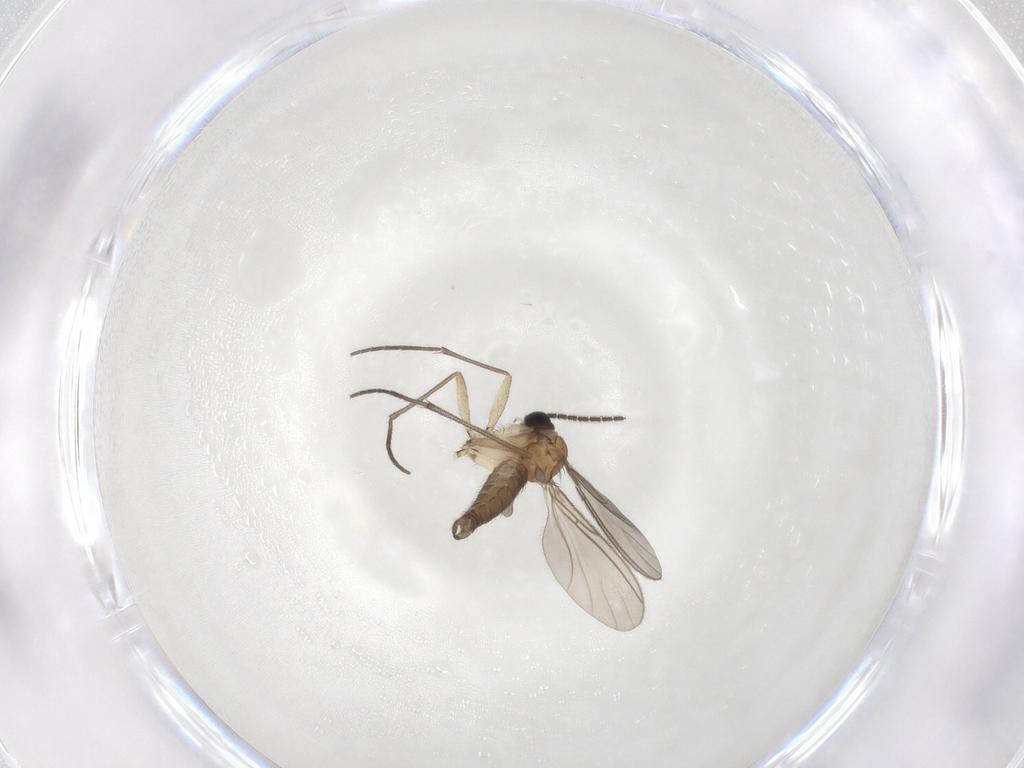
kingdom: Animalia
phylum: Arthropoda
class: Insecta
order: Diptera
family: Sciaridae
